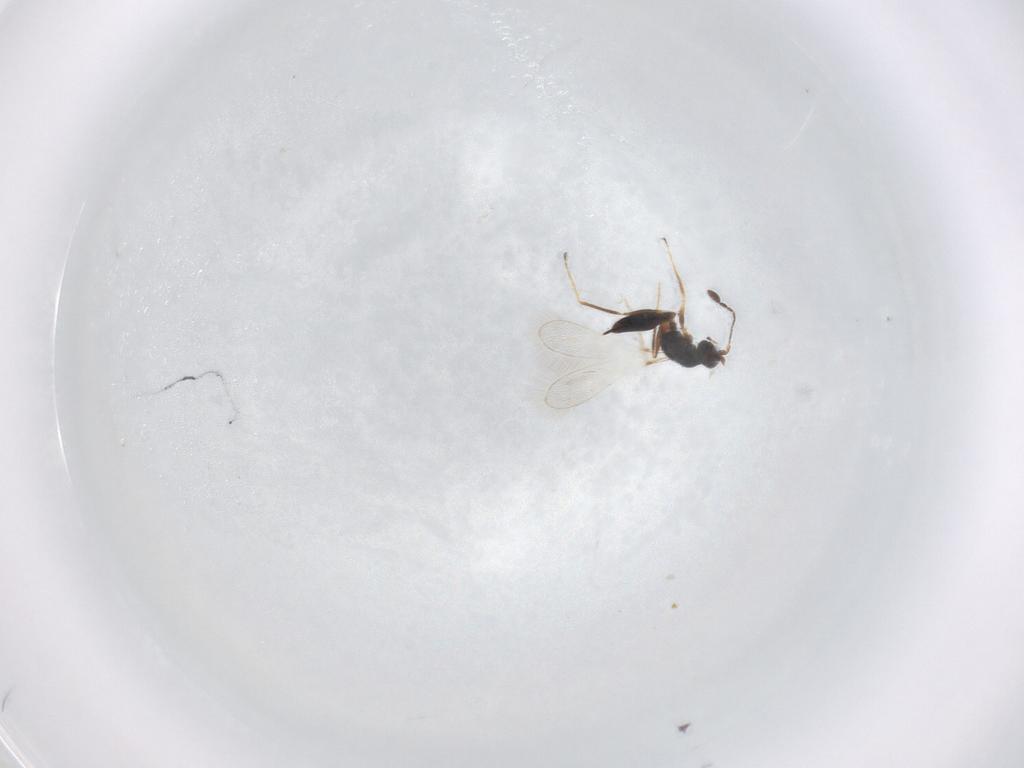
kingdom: Animalia
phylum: Arthropoda
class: Insecta
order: Hymenoptera
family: Mymaridae
